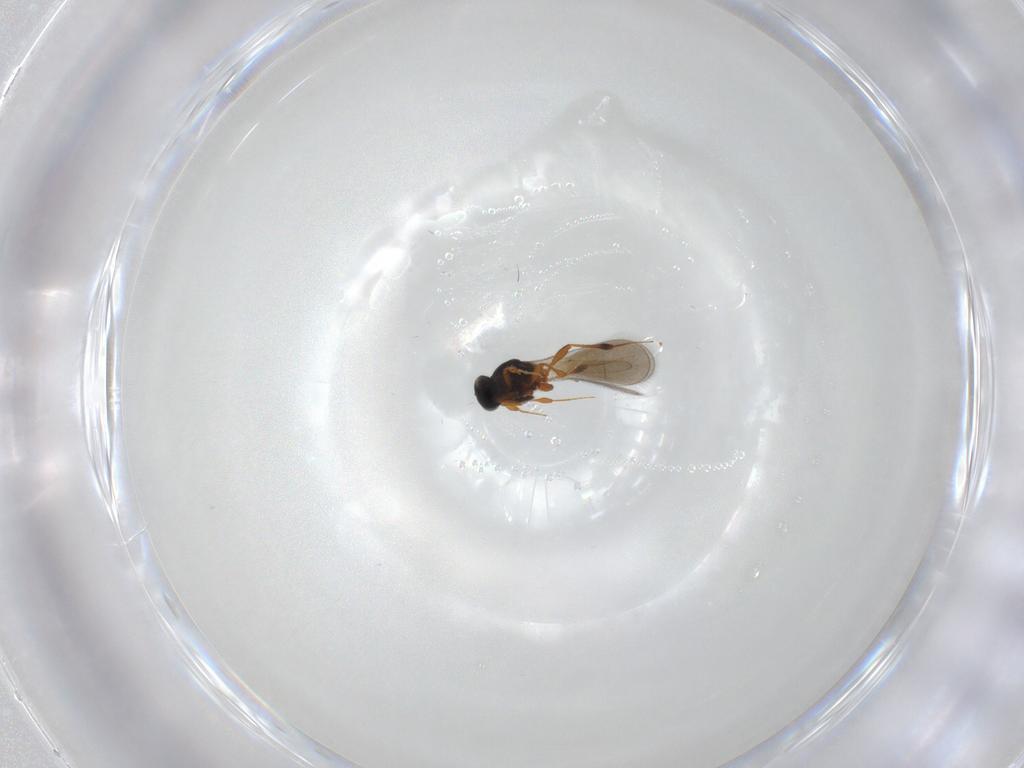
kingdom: Animalia
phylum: Arthropoda
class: Insecta
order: Hymenoptera
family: Platygastridae
